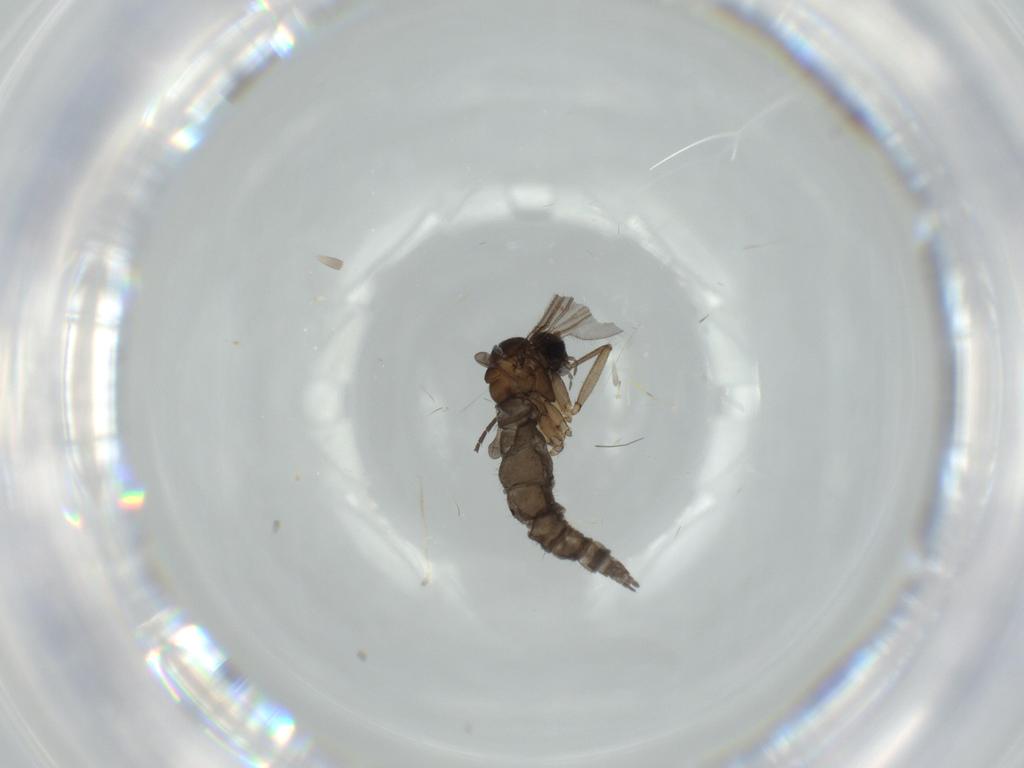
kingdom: Animalia
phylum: Arthropoda
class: Insecta
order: Diptera
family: Sciaridae
